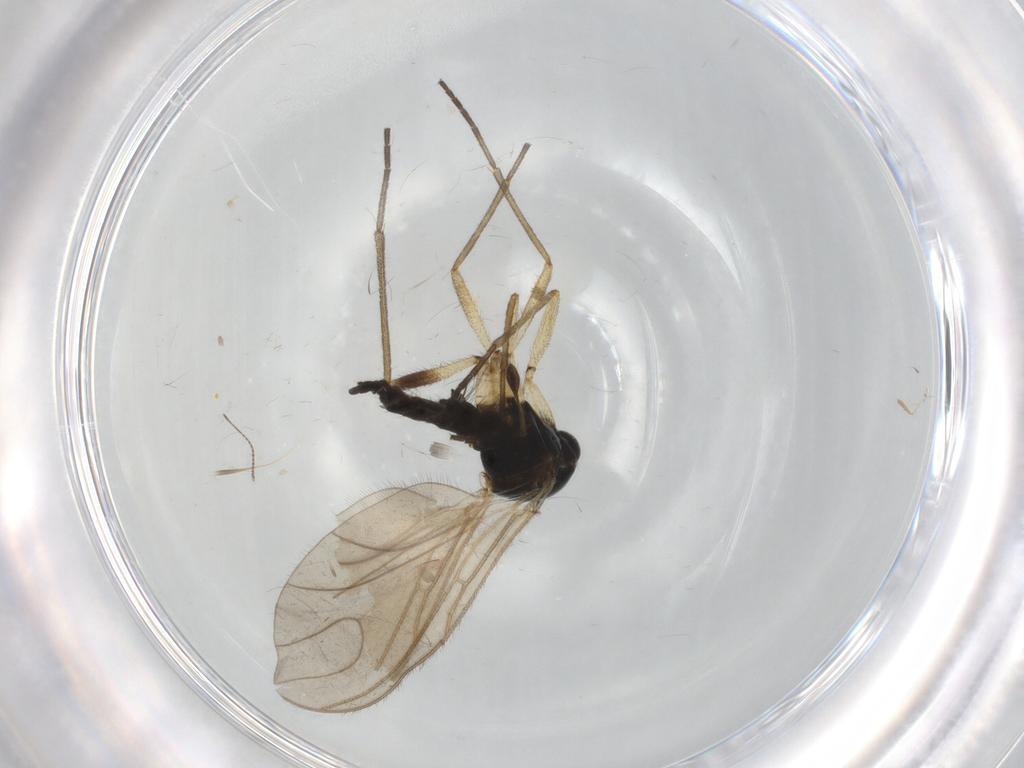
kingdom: Animalia
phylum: Arthropoda
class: Insecta
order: Diptera
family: Sciaridae
